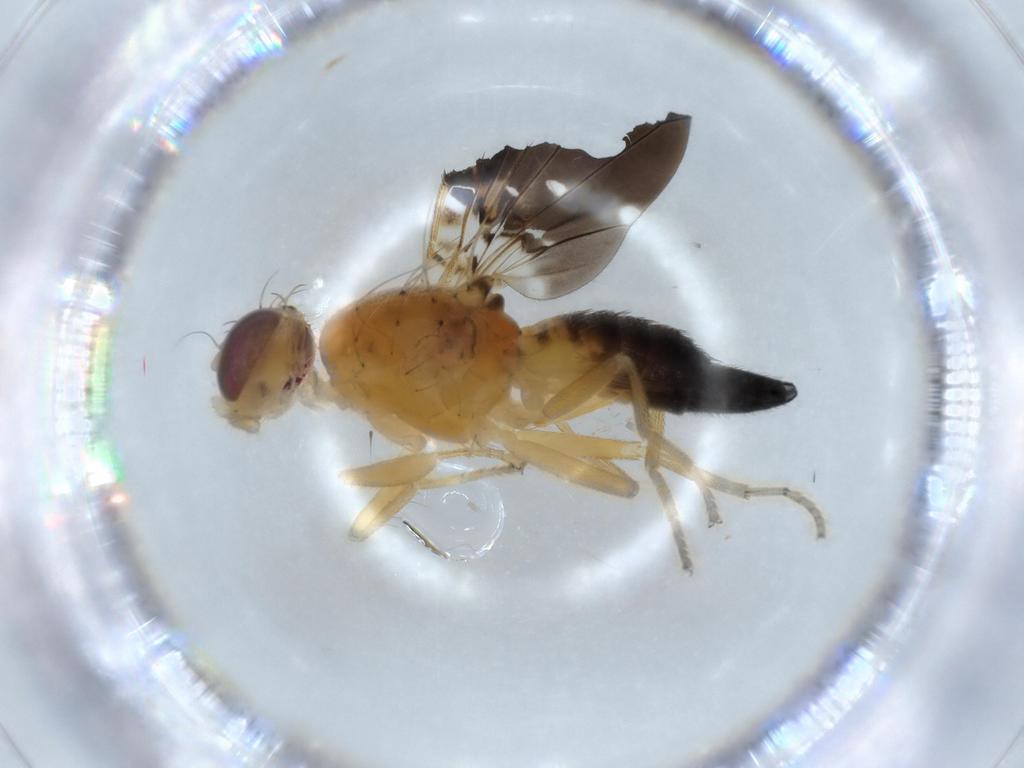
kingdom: Animalia
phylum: Arthropoda
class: Insecta
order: Diptera
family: Tephritidae
